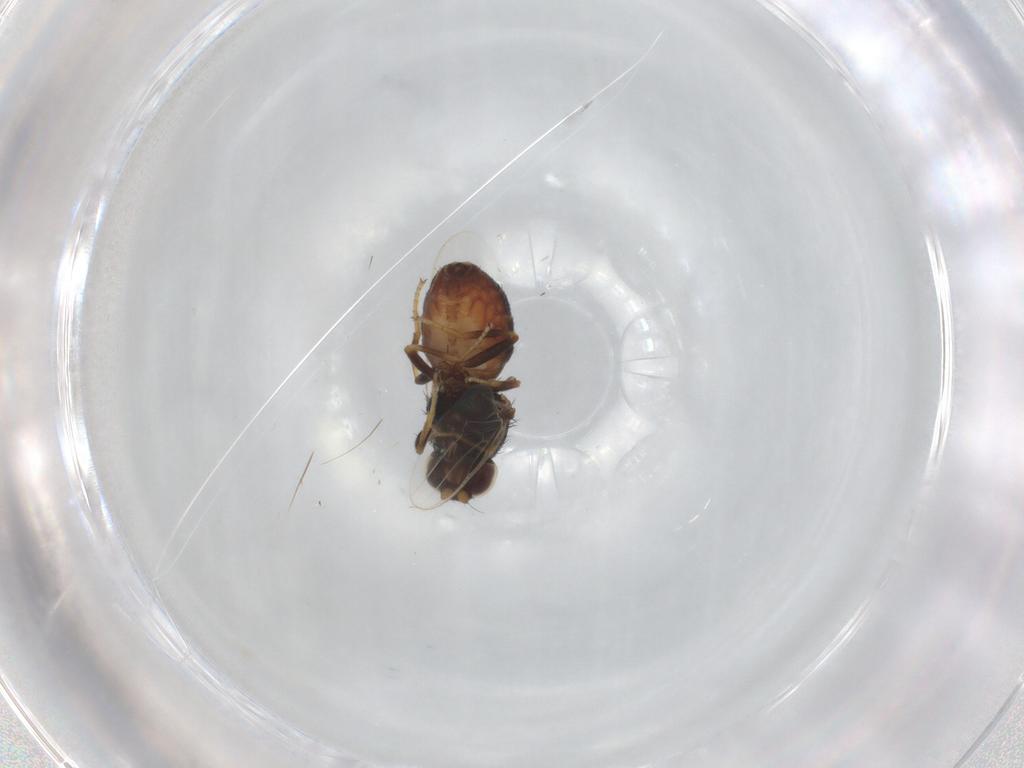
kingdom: Animalia
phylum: Arthropoda
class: Insecta
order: Diptera
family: Chloropidae
